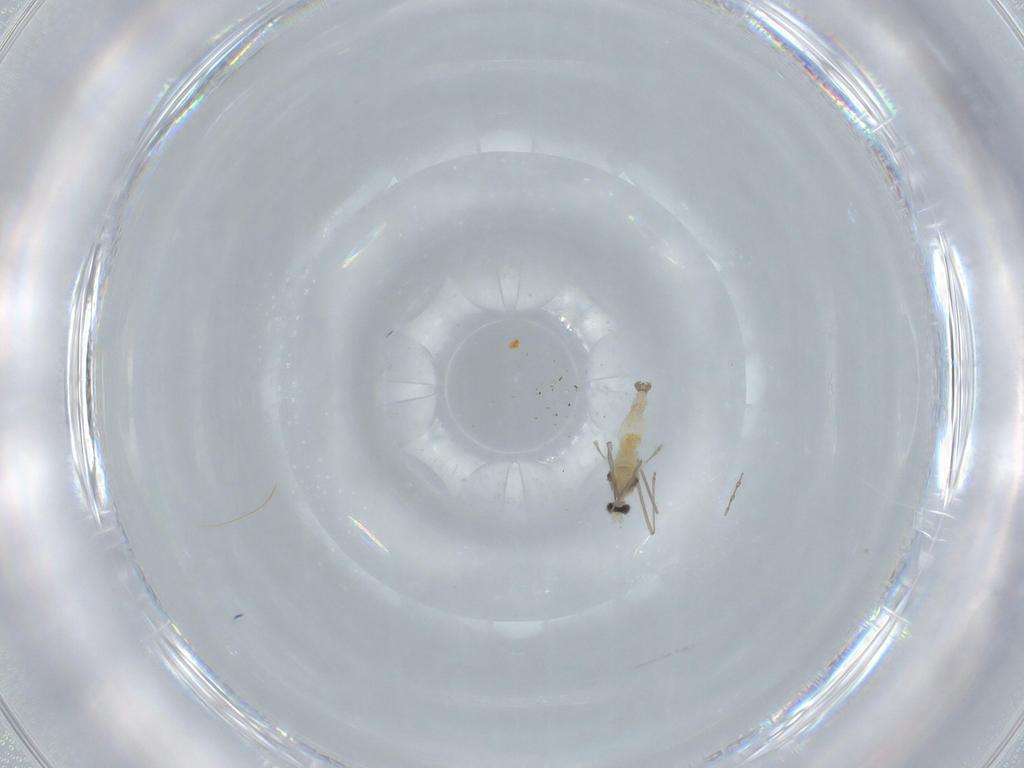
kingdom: Animalia
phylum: Arthropoda
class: Insecta
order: Diptera
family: Cecidomyiidae
